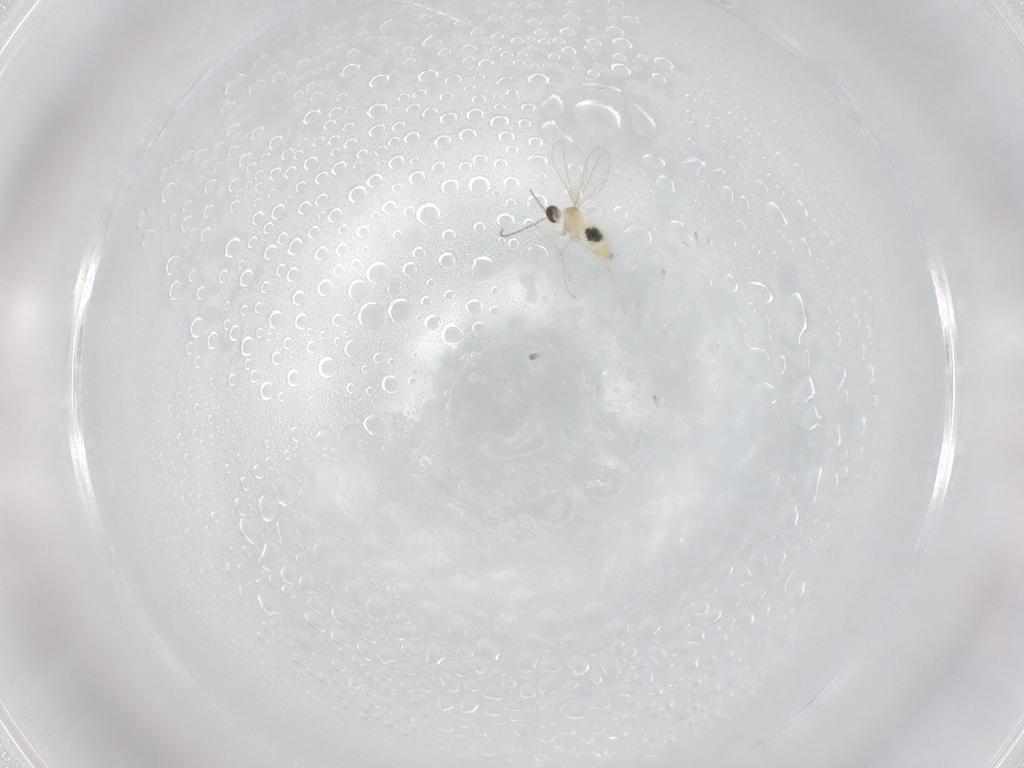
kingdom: Animalia
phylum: Arthropoda
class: Insecta
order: Diptera
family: Cecidomyiidae
